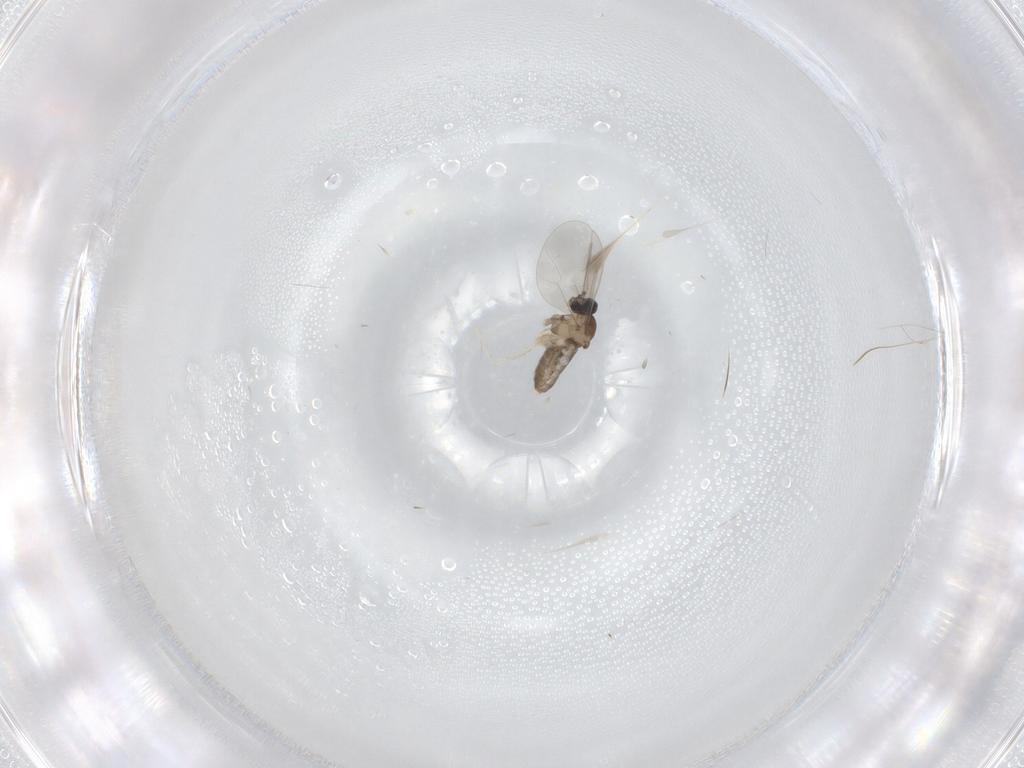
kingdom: Animalia
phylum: Arthropoda
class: Insecta
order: Diptera
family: Cecidomyiidae
